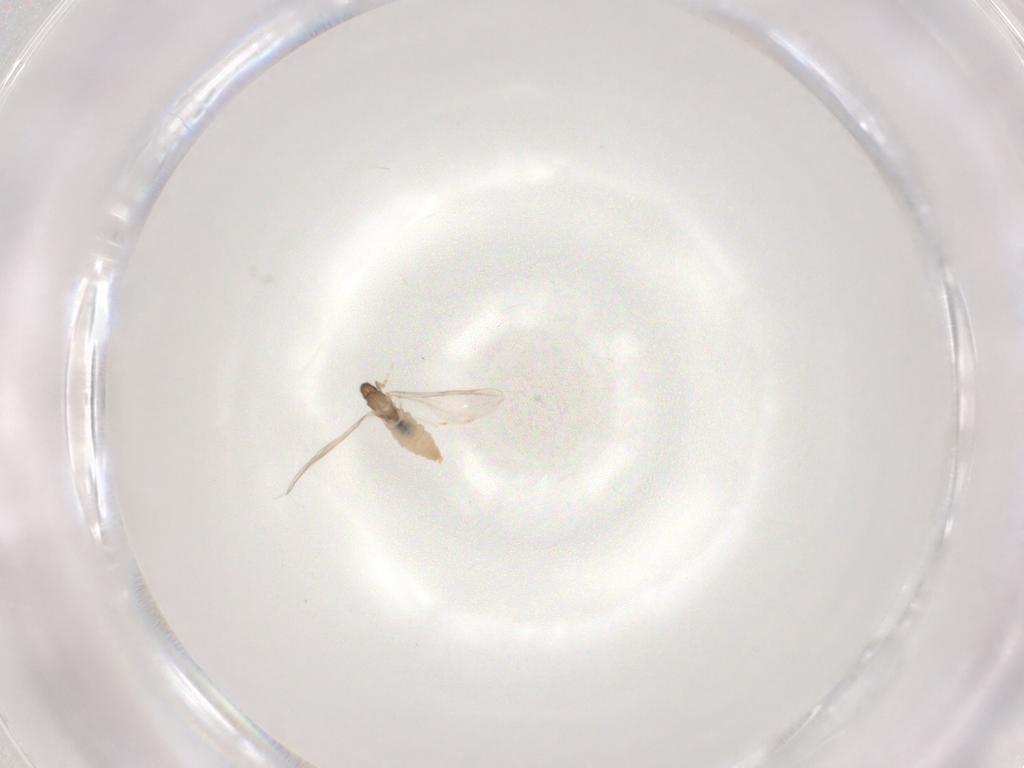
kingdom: Animalia
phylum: Arthropoda
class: Insecta
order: Diptera
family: Cecidomyiidae
